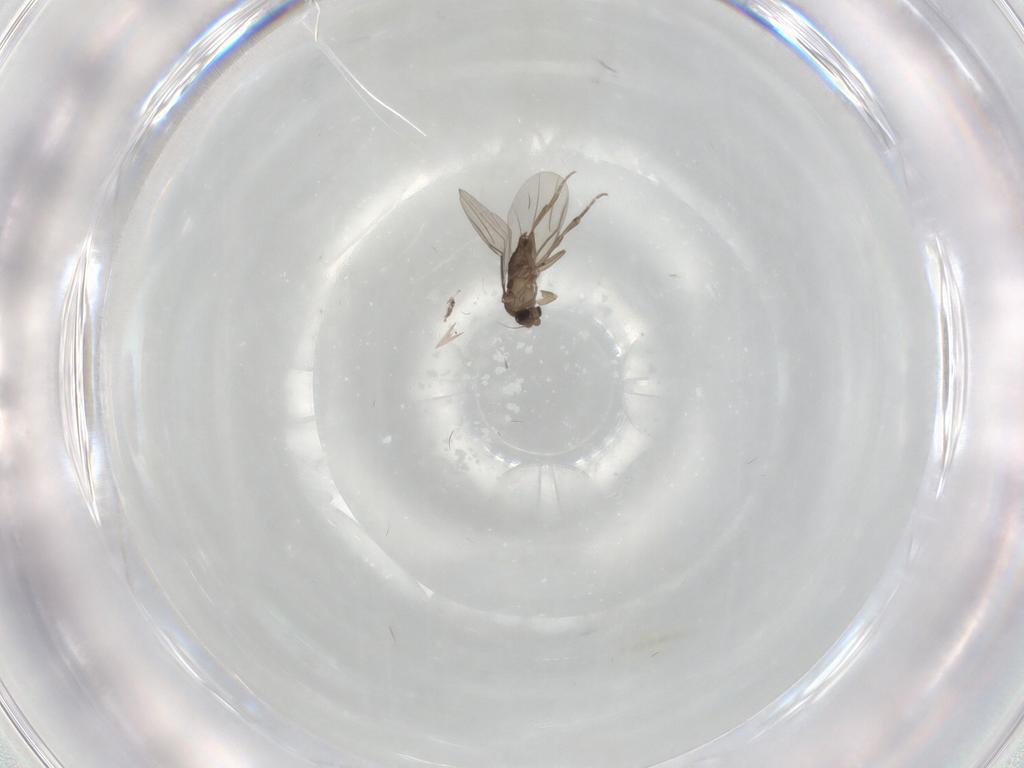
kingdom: Animalia
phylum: Arthropoda
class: Insecta
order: Diptera
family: Phoridae
